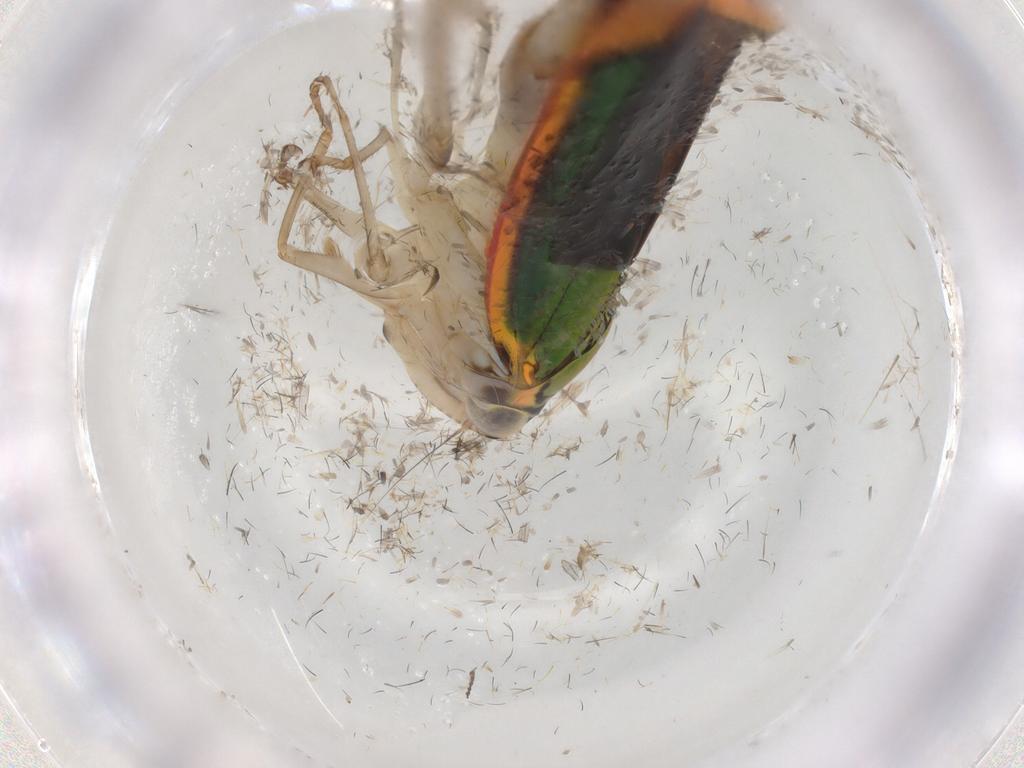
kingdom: Animalia
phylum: Arthropoda
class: Insecta
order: Hemiptera
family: Cicadellidae
